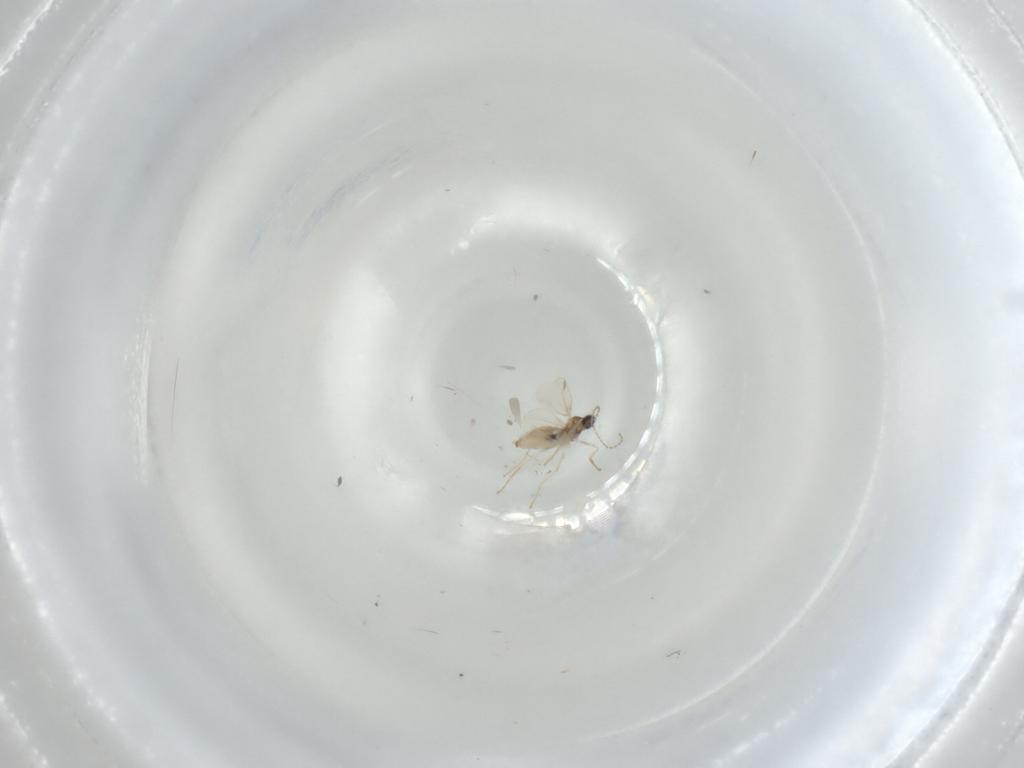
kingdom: Animalia
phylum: Arthropoda
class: Insecta
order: Diptera
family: Cecidomyiidae
